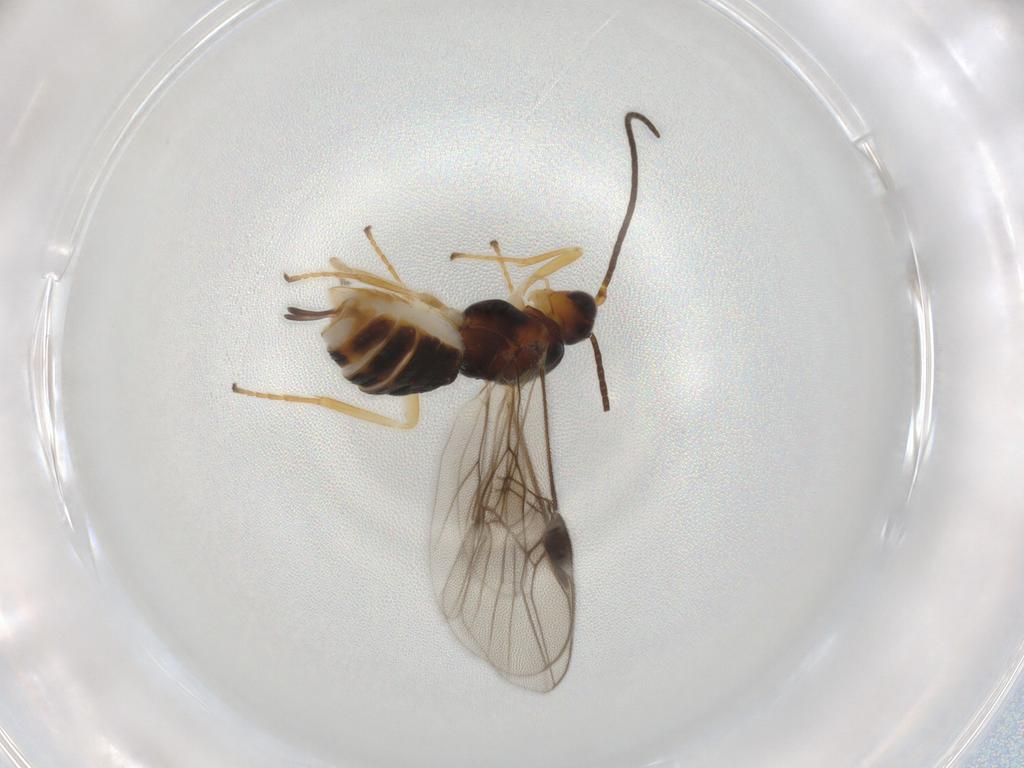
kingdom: Animalia
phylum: Arthropoda
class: Insecta
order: Hymenoptera
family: Braconidae
